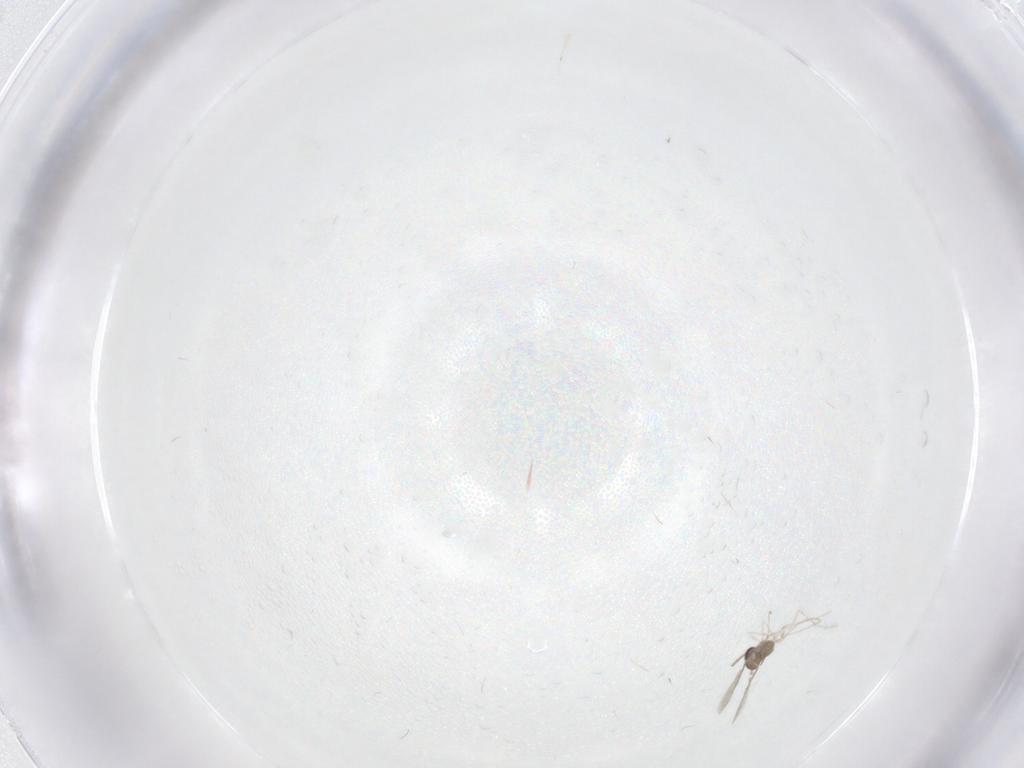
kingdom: Animalia
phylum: Arthropoda
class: Insecta
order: Diptera
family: Cecidomyiidae
